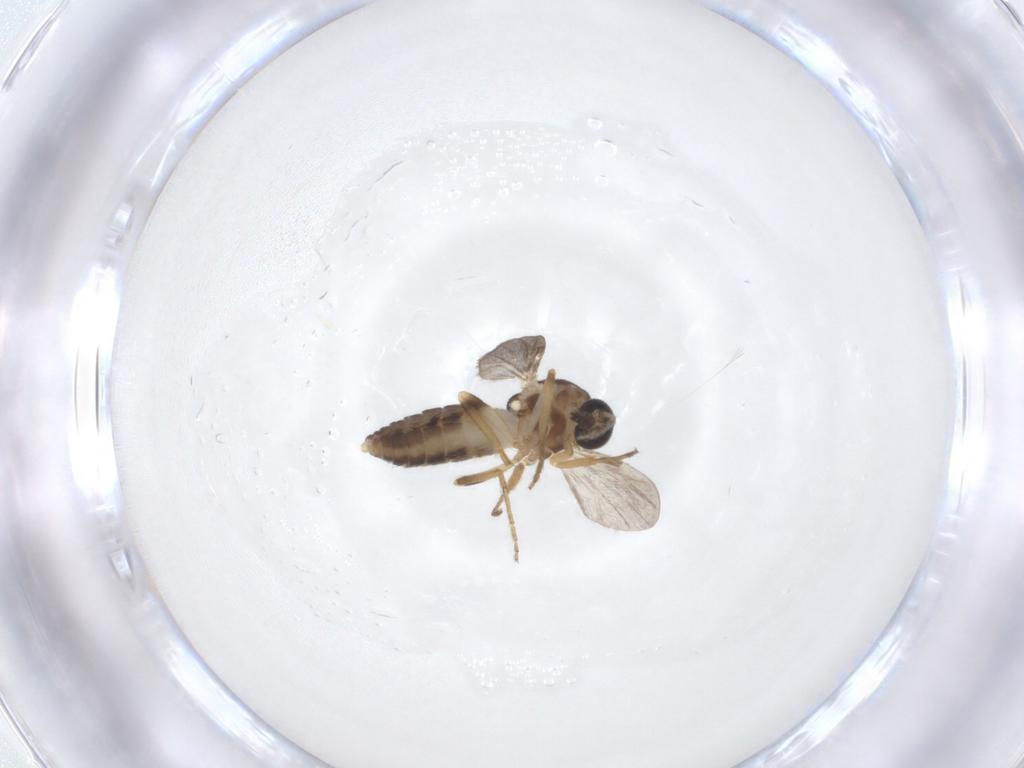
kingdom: Animalia
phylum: Arthropoda
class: Insecta
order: Diptera
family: Ceratopogonidae
